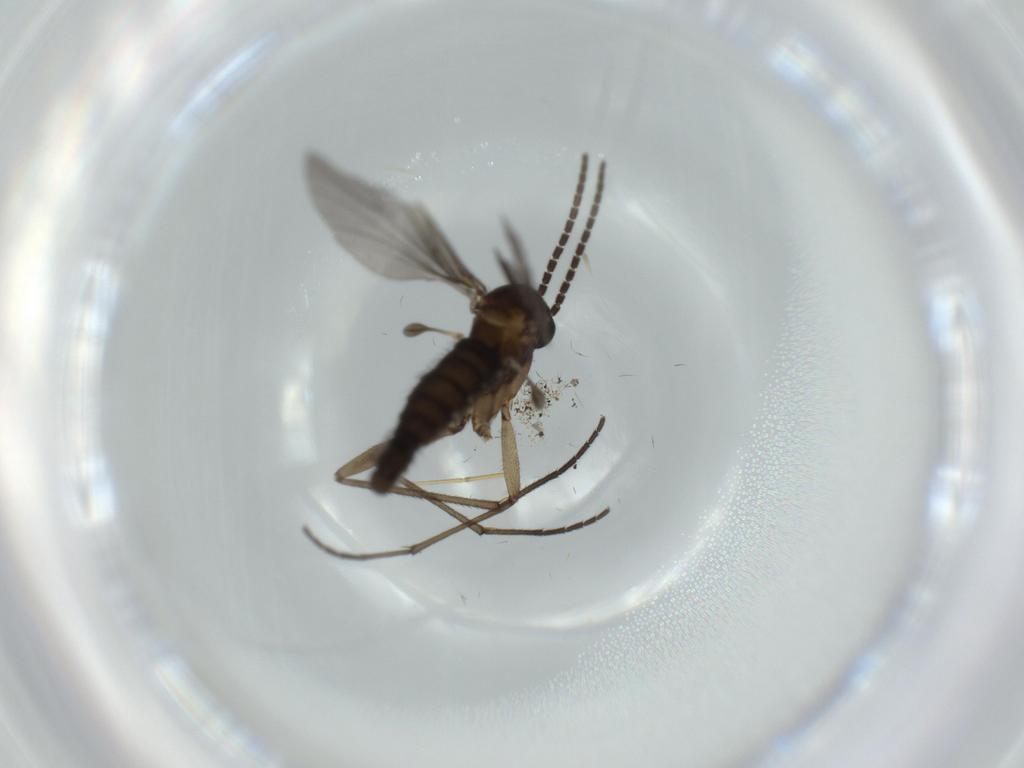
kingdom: Animalia
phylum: Arthropoda
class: Insecta
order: Diptera
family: Sciaridae
